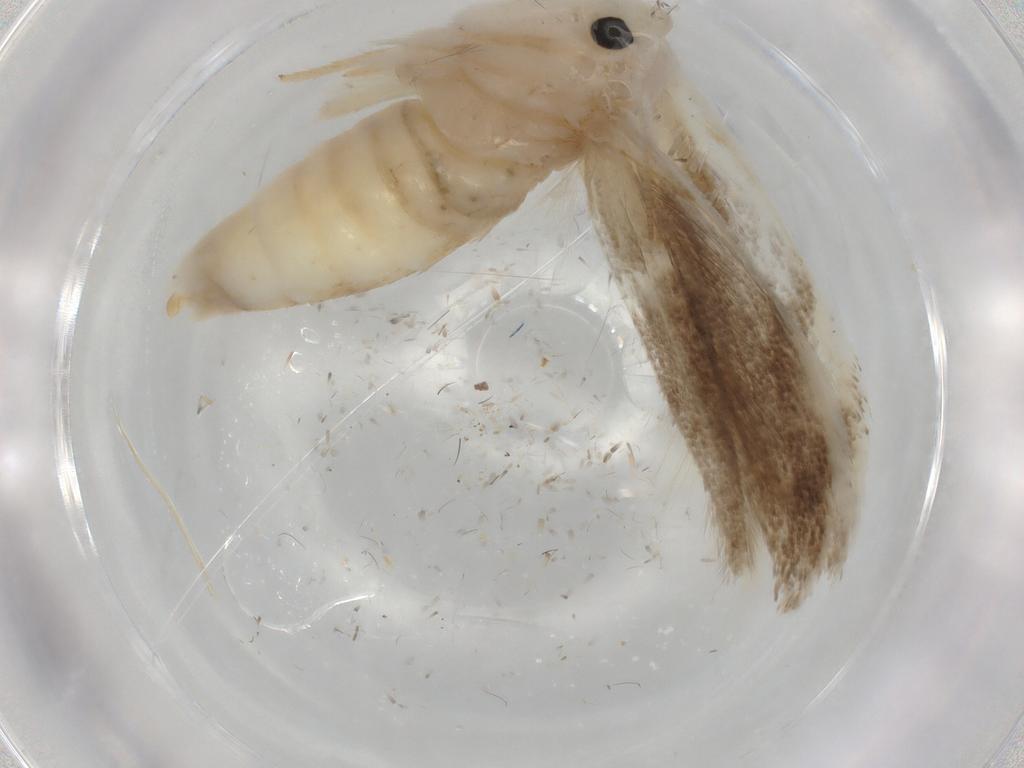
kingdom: Animalia
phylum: Arthropoda
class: Insecta
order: Lepidoptera
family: Bucculatricidae
